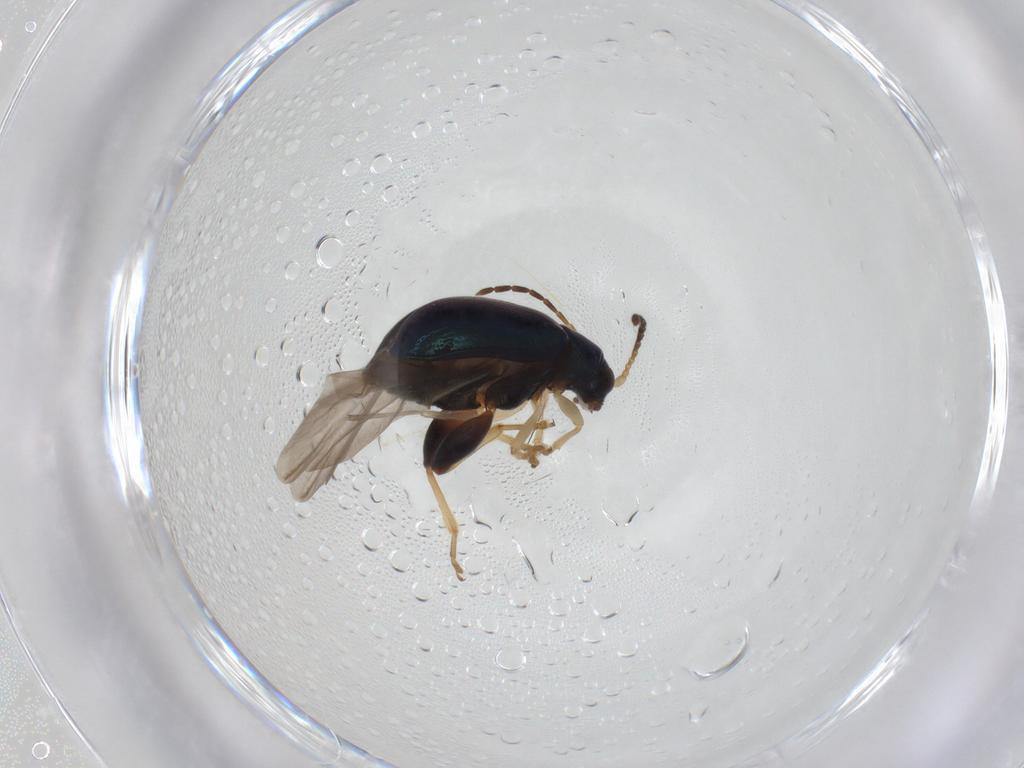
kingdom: Animalia
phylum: Arthropoda
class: Insecta
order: Coleoptera
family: Chrysomelidae
